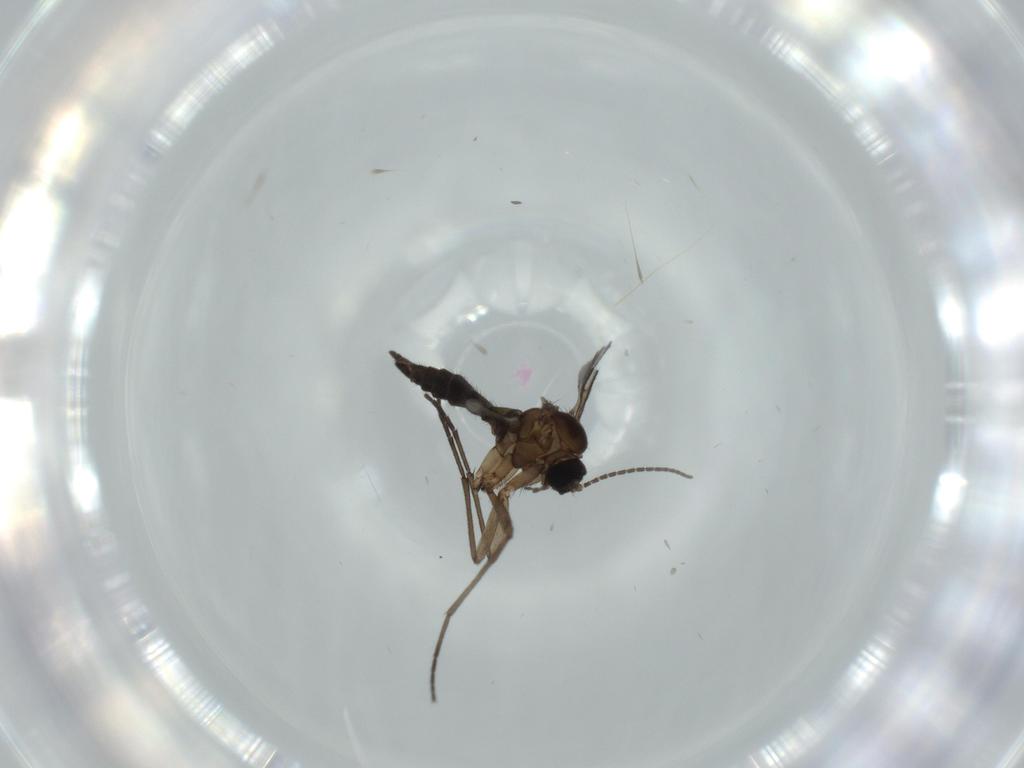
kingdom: Animalia
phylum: Arthropoda
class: Insecta
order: Diptera
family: Sciaridae
